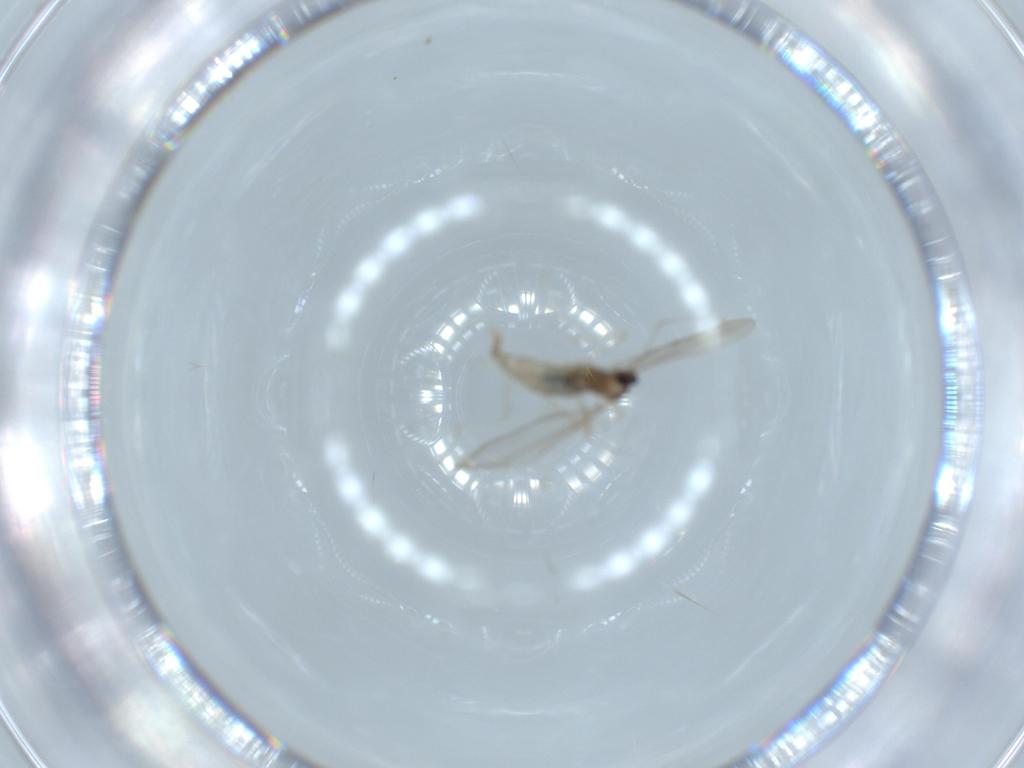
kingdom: Animalia
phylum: Arthropoda
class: Insecta
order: Diptera
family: Cecidomyiidae
